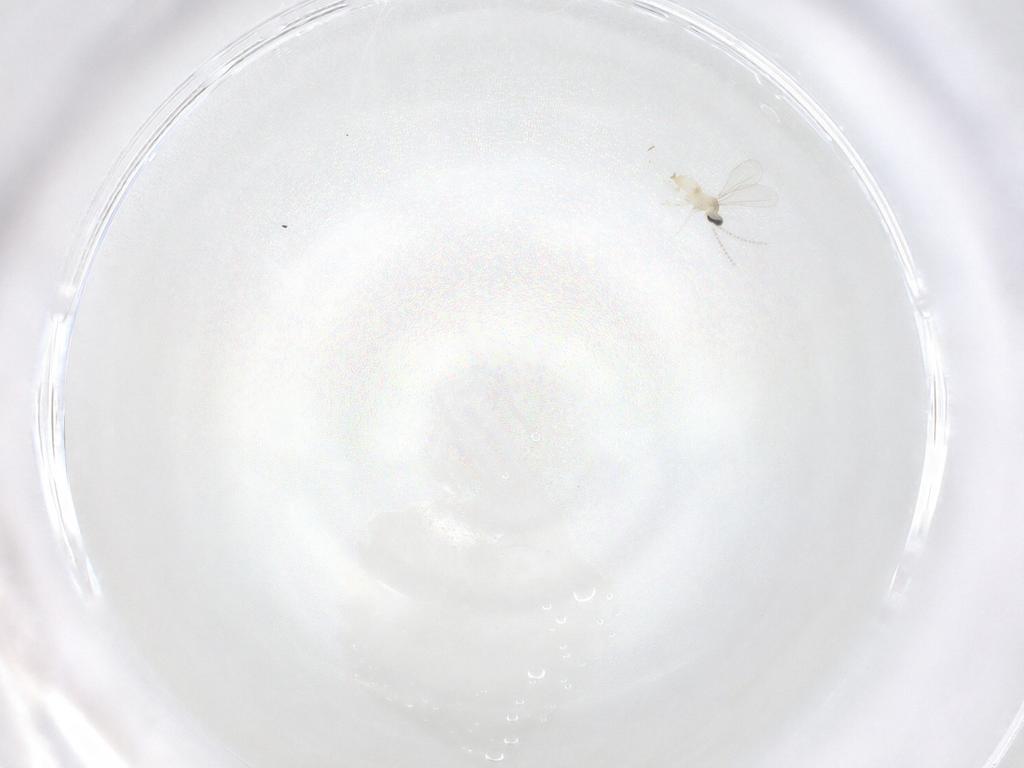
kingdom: Animalia
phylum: Arthropoda
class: Insecta
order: Diptera
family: Cecidomyiidae
